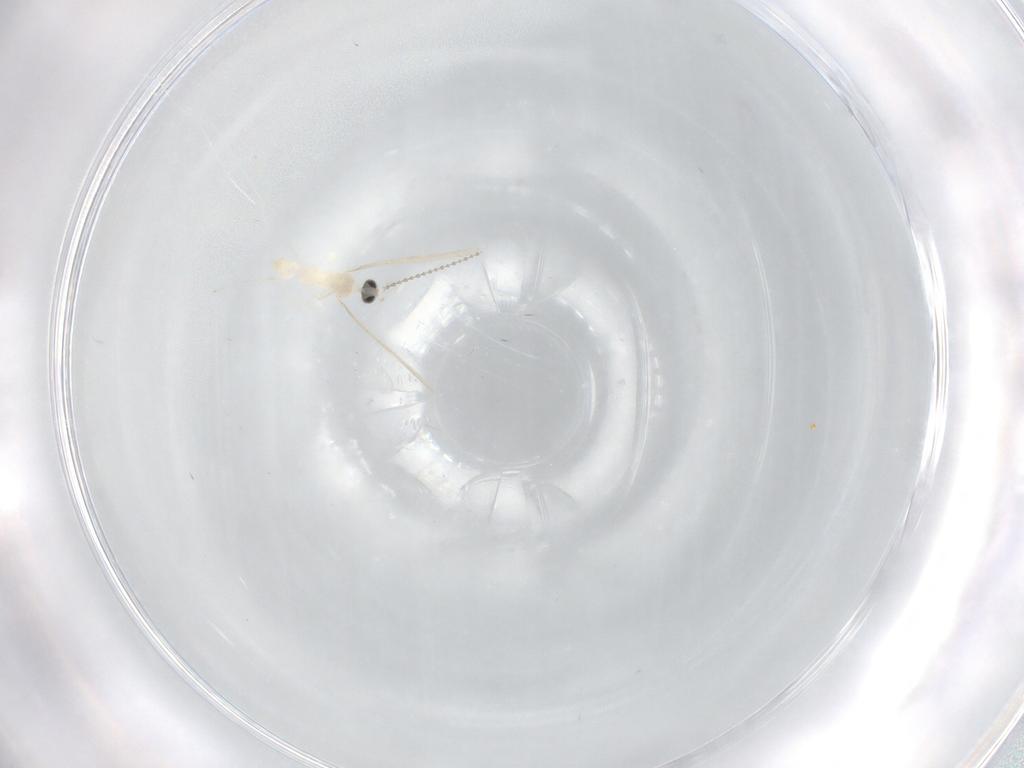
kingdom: Animalia
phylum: Arthropoda
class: Insecta
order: Diptera
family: Cecidomyiidae
